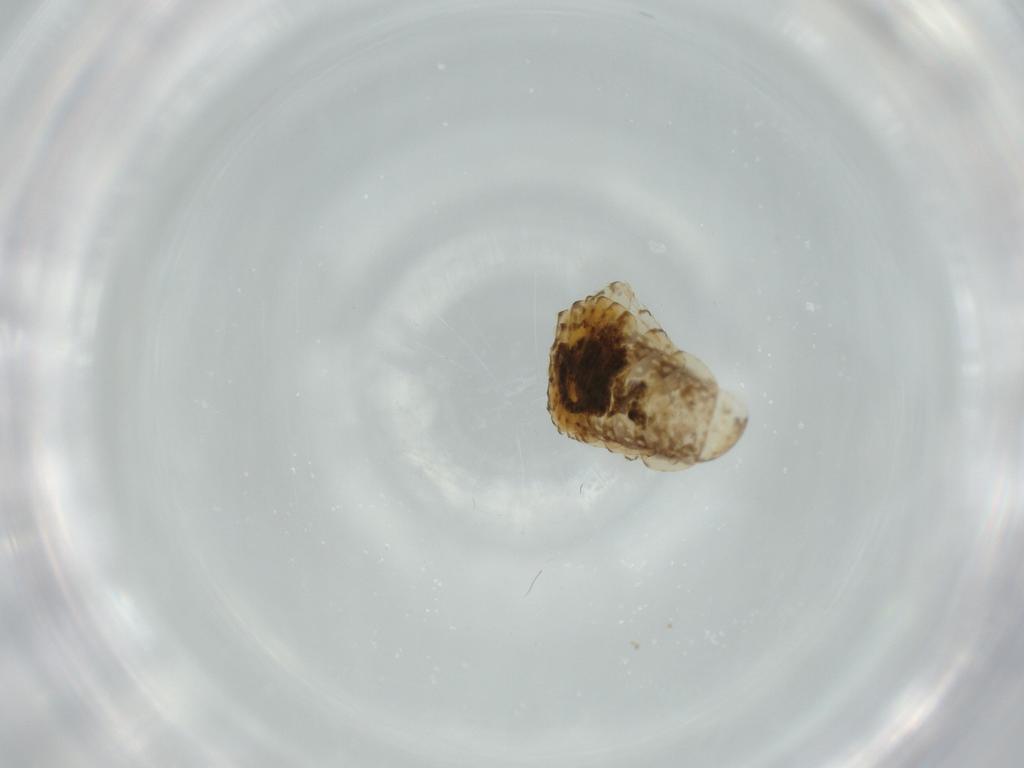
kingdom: Animalia
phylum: Arthropoda
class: Insecta
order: Blattodea
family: Ectobiidae
